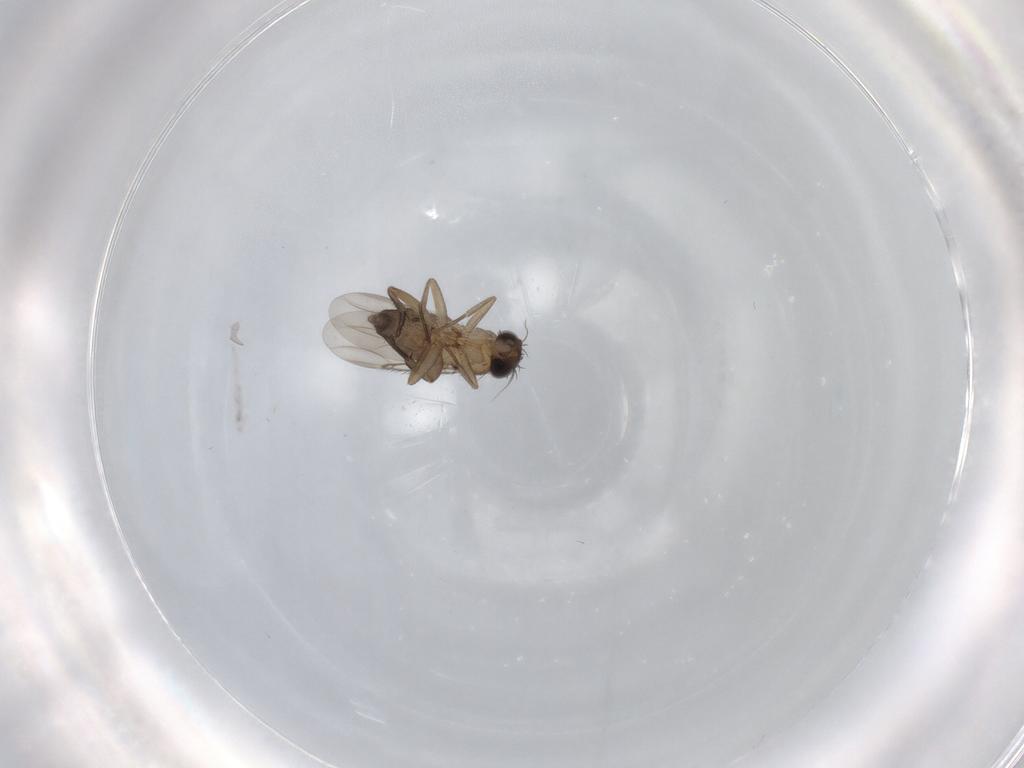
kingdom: Animalia
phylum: Arthropoda
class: Insecta
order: Diptera
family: Phoridae
